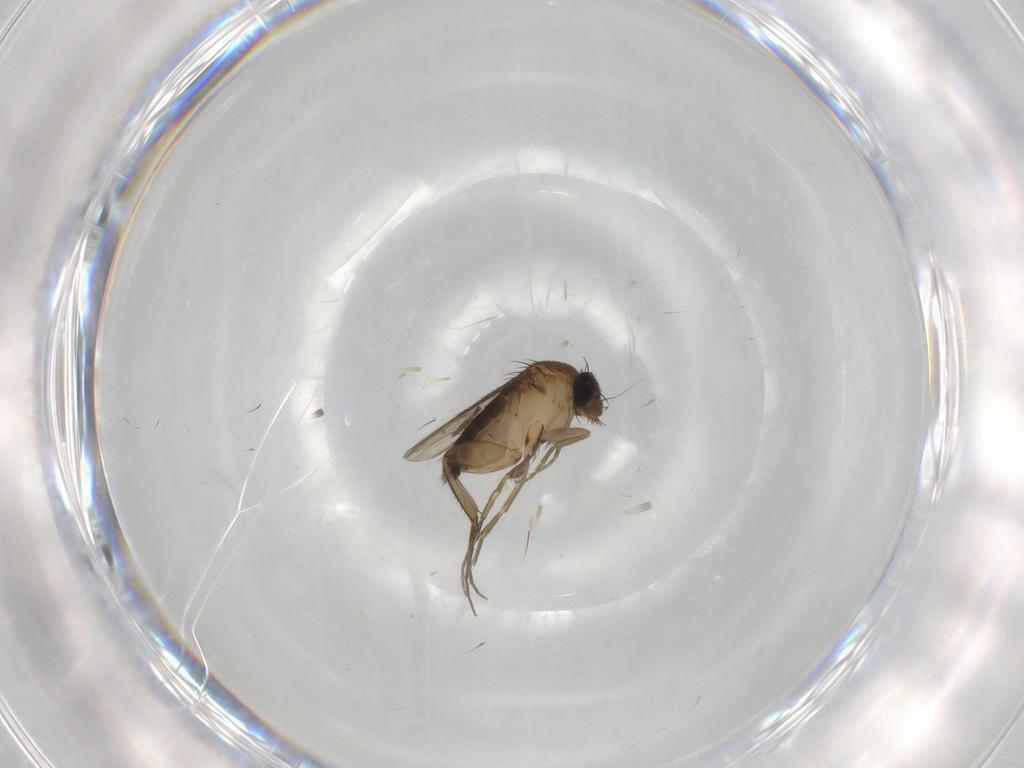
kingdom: Animalia
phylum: Arthropoda
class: Insecta
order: Diptera
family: Phoridae
